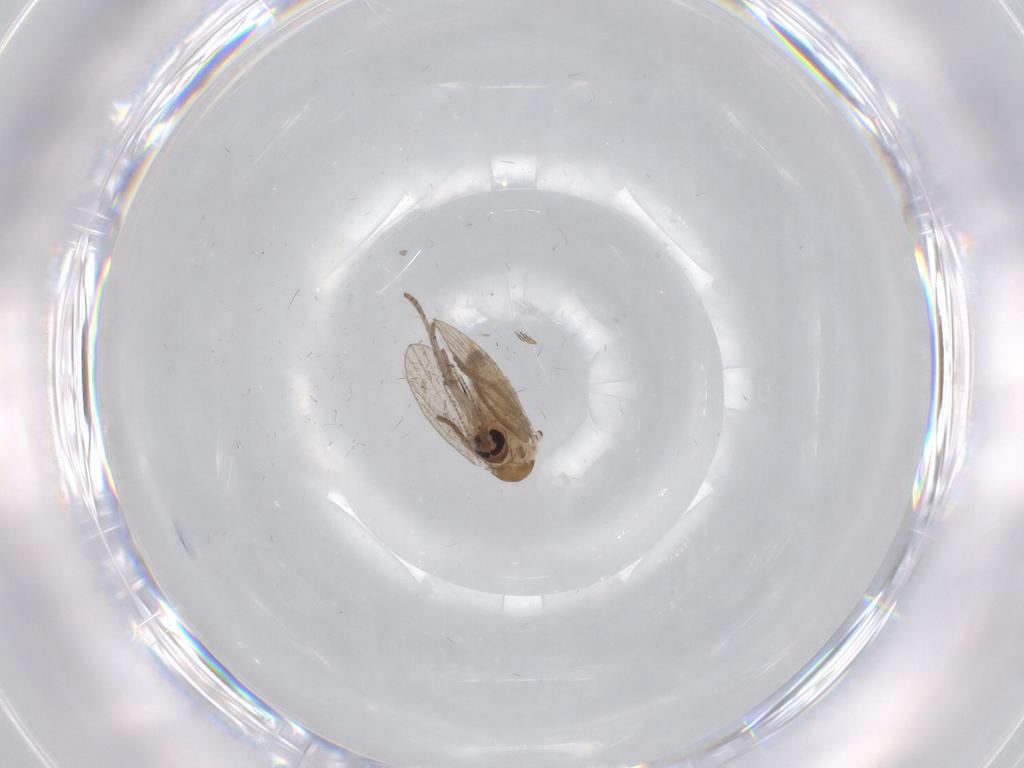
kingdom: Animalia
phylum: Arthropoda
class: Insecta
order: Diptera
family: Psychodidae
